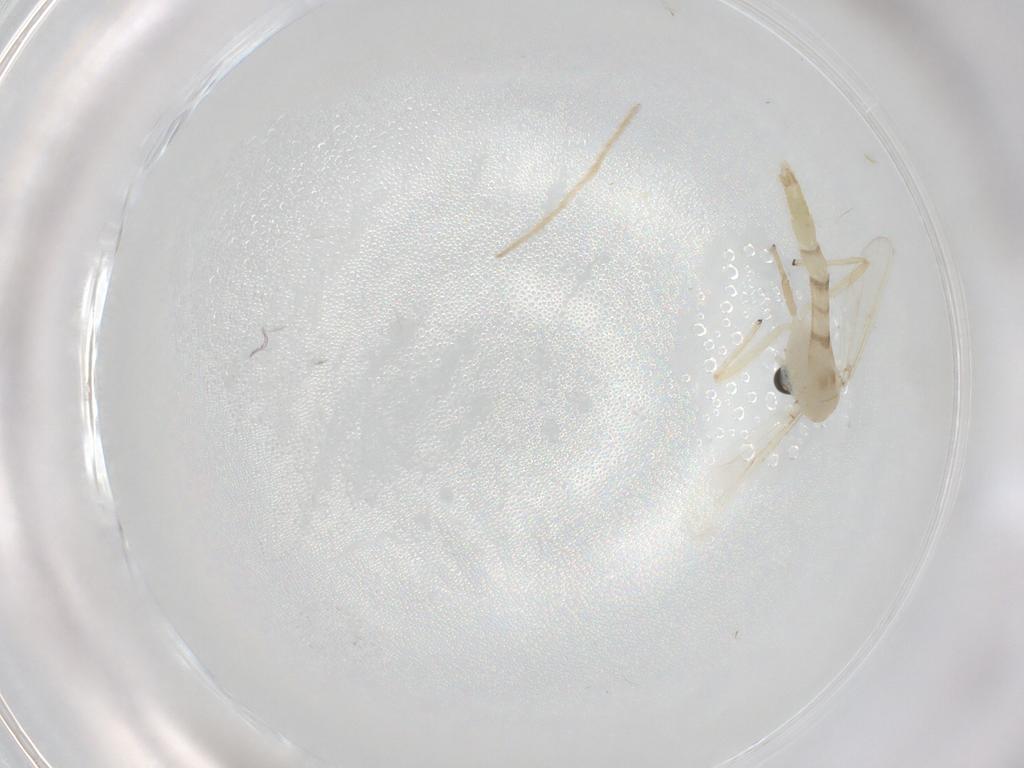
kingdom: Animalia
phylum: Arthropoda
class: Insecta
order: Diptera
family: Chironomidae
